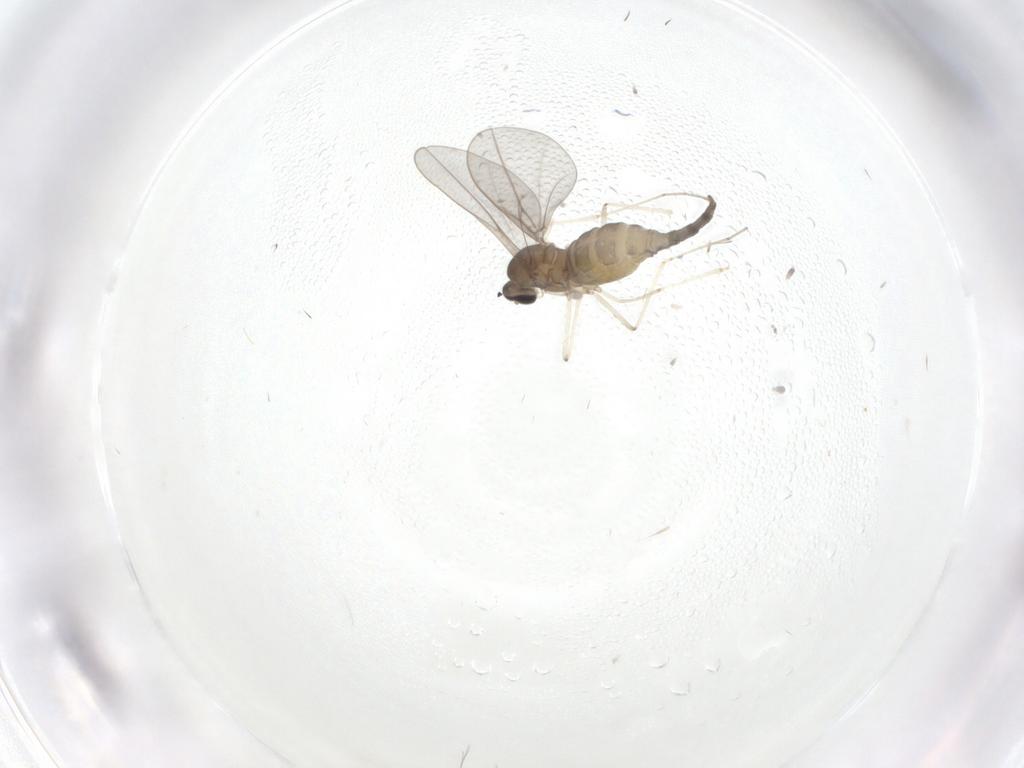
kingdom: Animalia
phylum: Arthropoda
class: Insecta
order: Diptera
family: Cecidomyiidae
